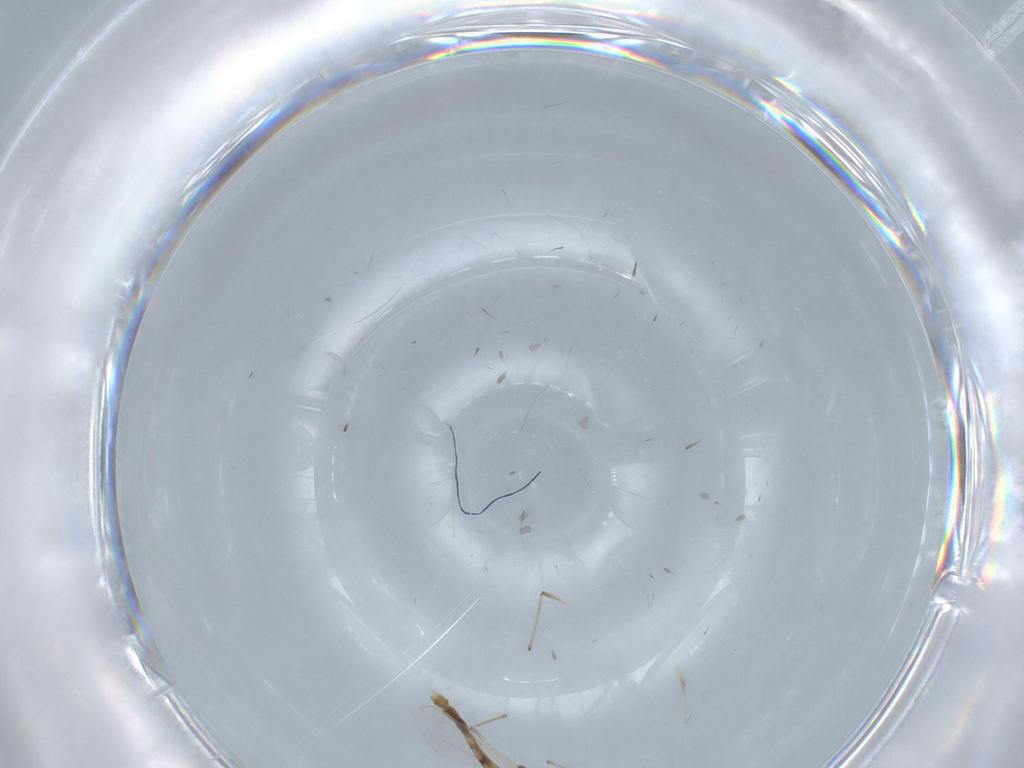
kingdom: Animalia
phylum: Arthropoda
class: Insecta
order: Diptera
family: Chironomidae
